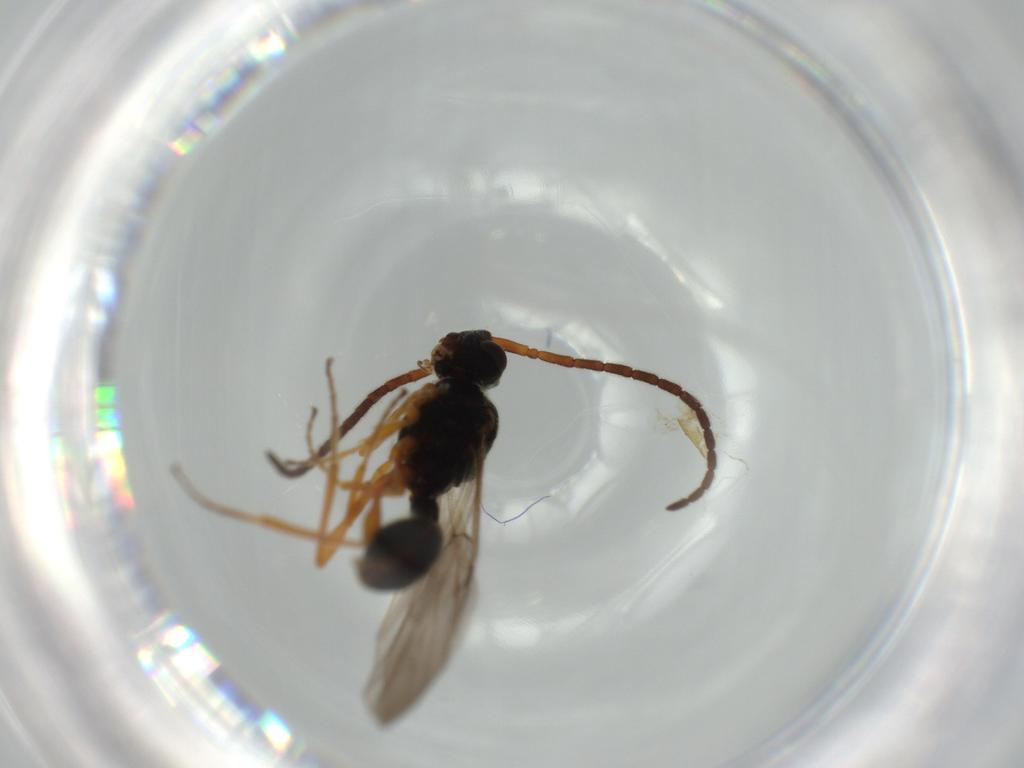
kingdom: Animalia
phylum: Arthropoda
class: Insecta
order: Hymenoptera
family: Diapriidae
